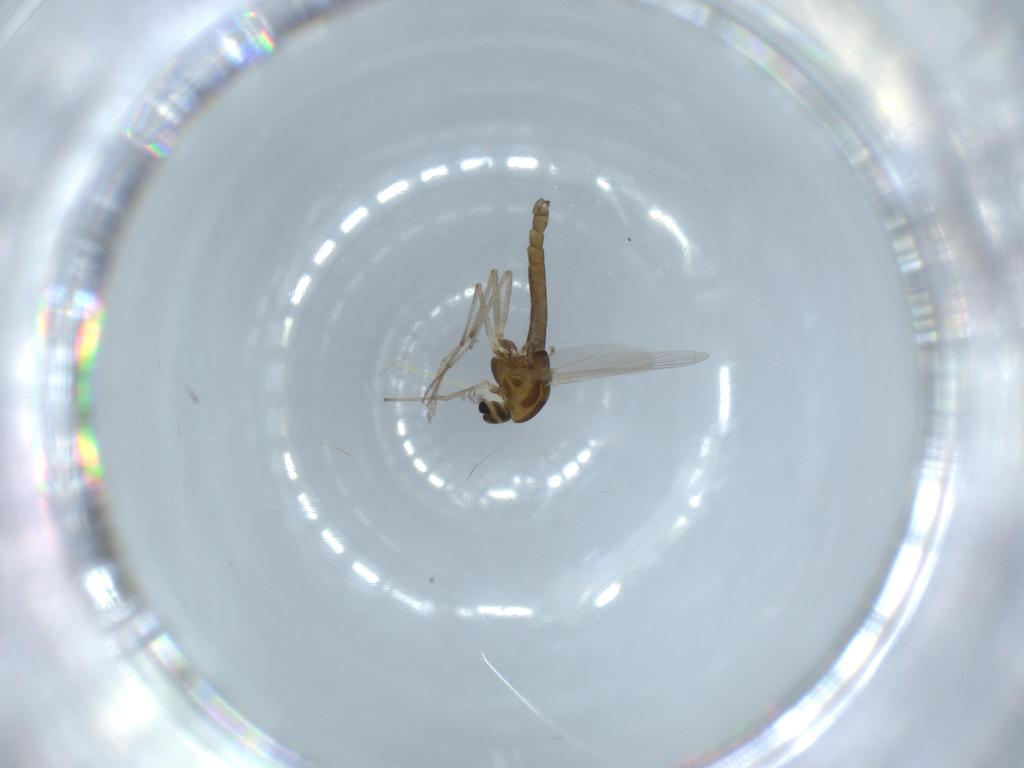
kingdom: Animalia
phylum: Arthropoda
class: Insecta
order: Diptera
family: Chironomidae
